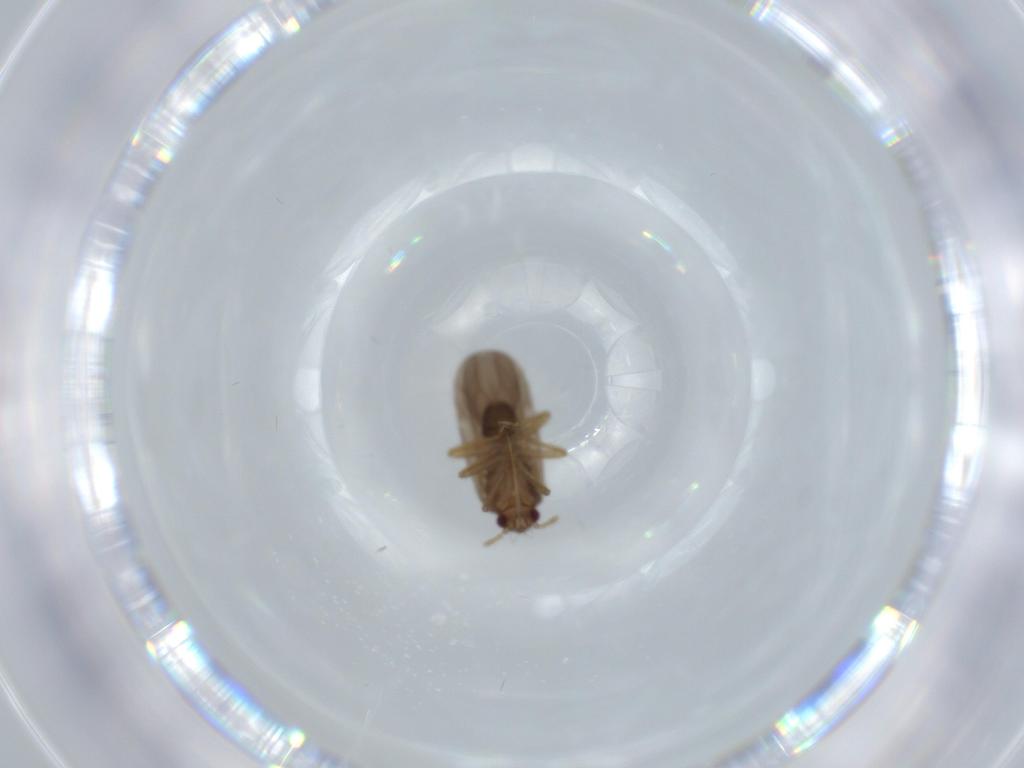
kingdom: Animalia
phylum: Arthropoda
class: Insecta
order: Hemiptera
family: Ceratocombidae
